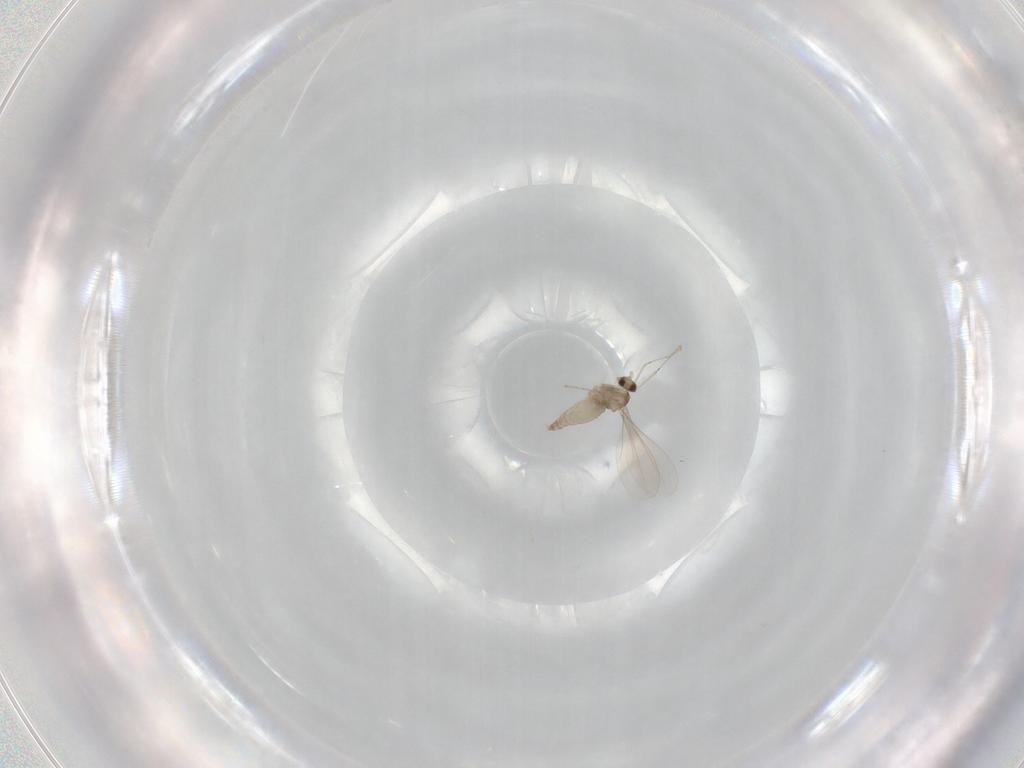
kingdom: Animalia
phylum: Arthropoda
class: Insecta
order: Diptera
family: Cecidomyiidae
